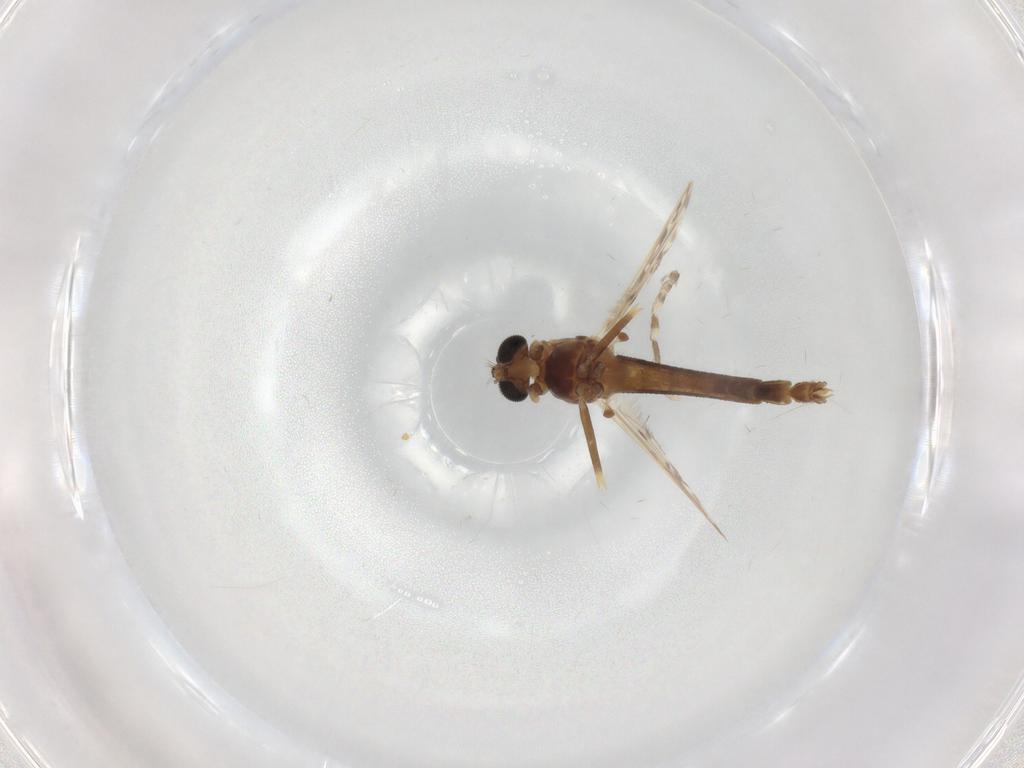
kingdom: Animalia
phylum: Arthropoda
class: Insecta
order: Diptera
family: Chironomidae
